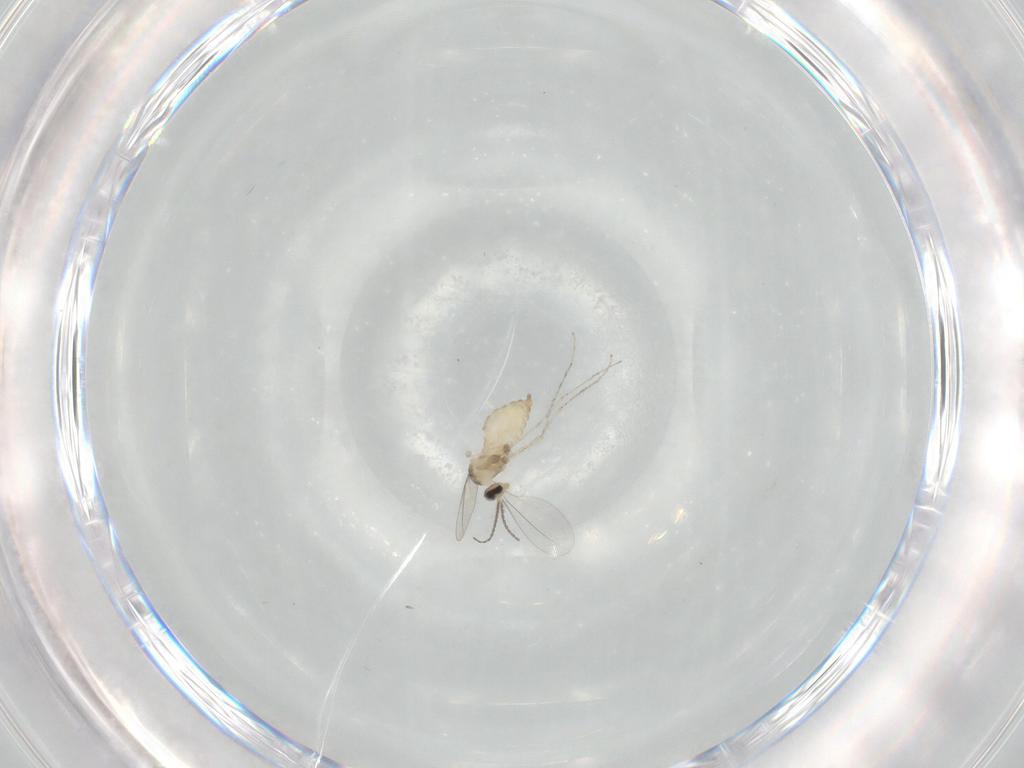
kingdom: Animalia
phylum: Arthropoda
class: Insecta
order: Diptera
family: Limoniidae
